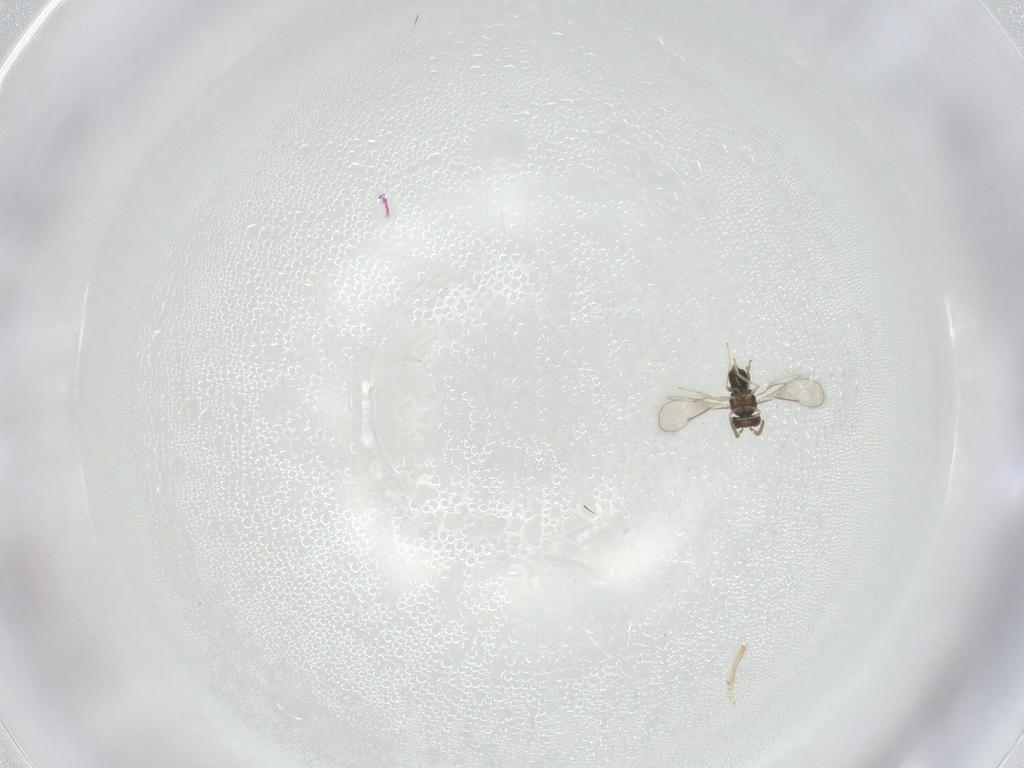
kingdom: Animalia
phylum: Arthropoda
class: Insecta
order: Hymenoptera
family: Aphelinidae
